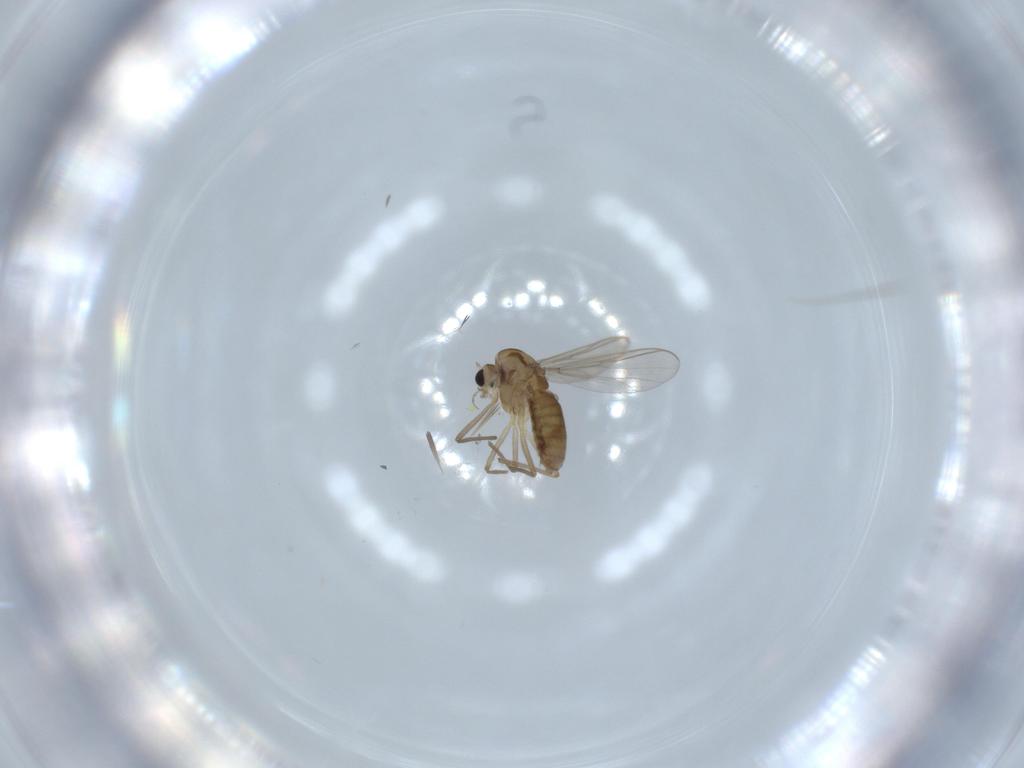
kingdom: Animalia
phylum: Arthropoda
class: Insecta
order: Diptera
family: Chironomidae
